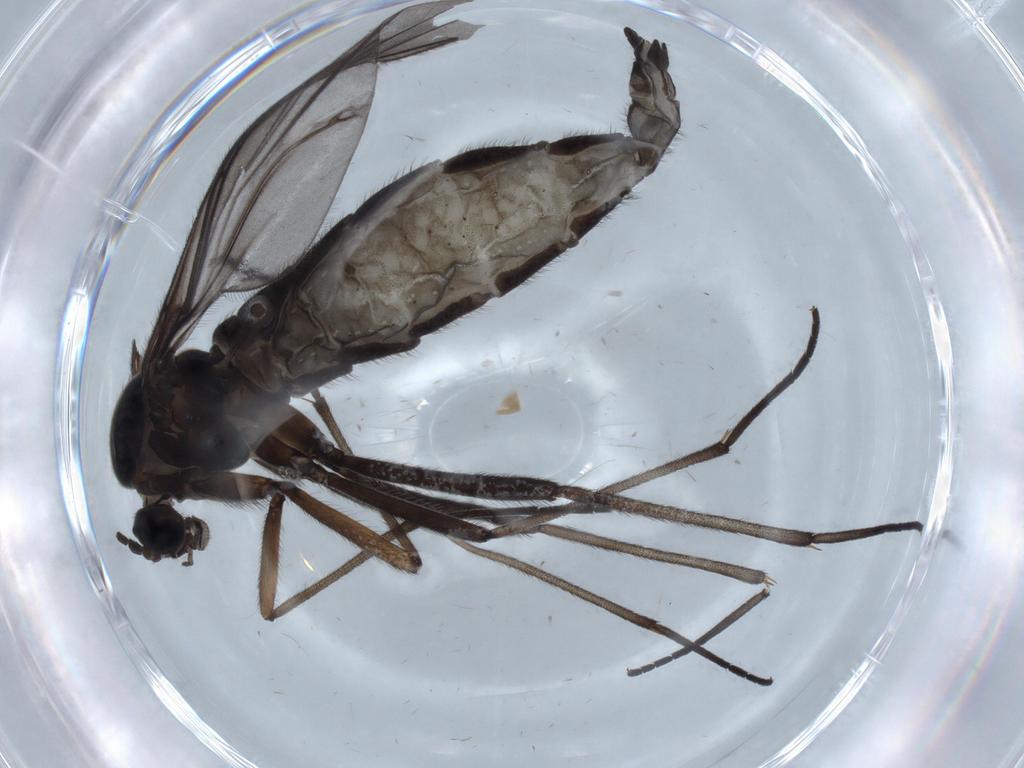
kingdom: Animalia
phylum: Arthropoda
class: Insecta
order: Diptera
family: Sciaridae
